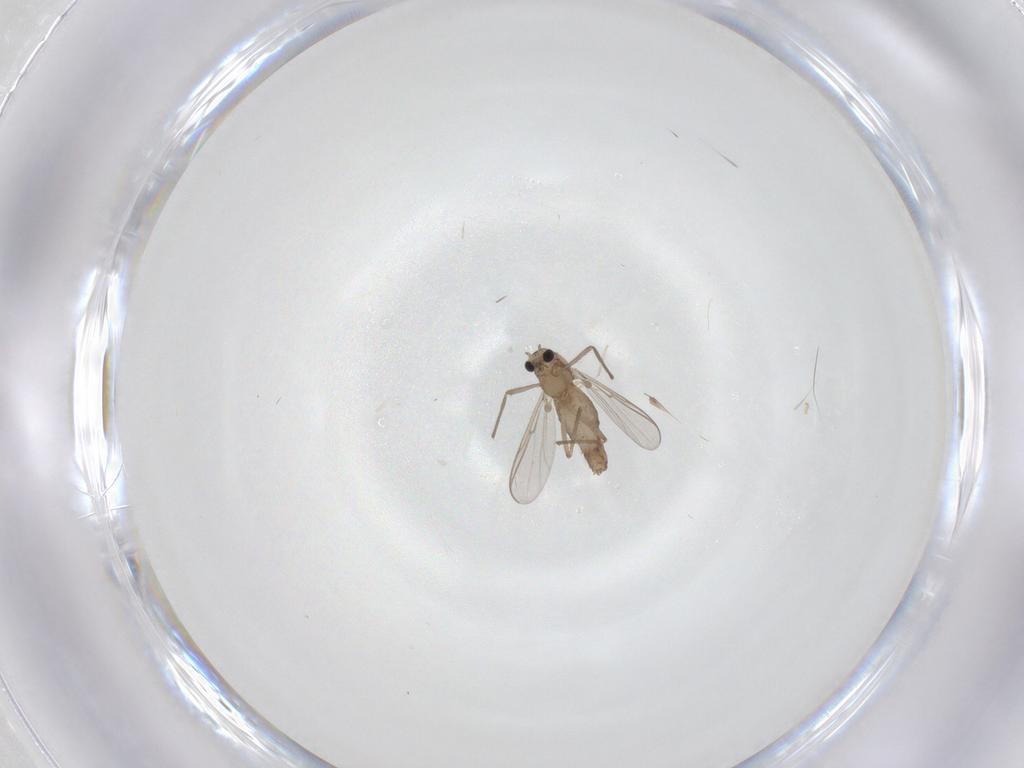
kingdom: Animalia
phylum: Arthropoda
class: Insecta
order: Diptera
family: Chironomidae
